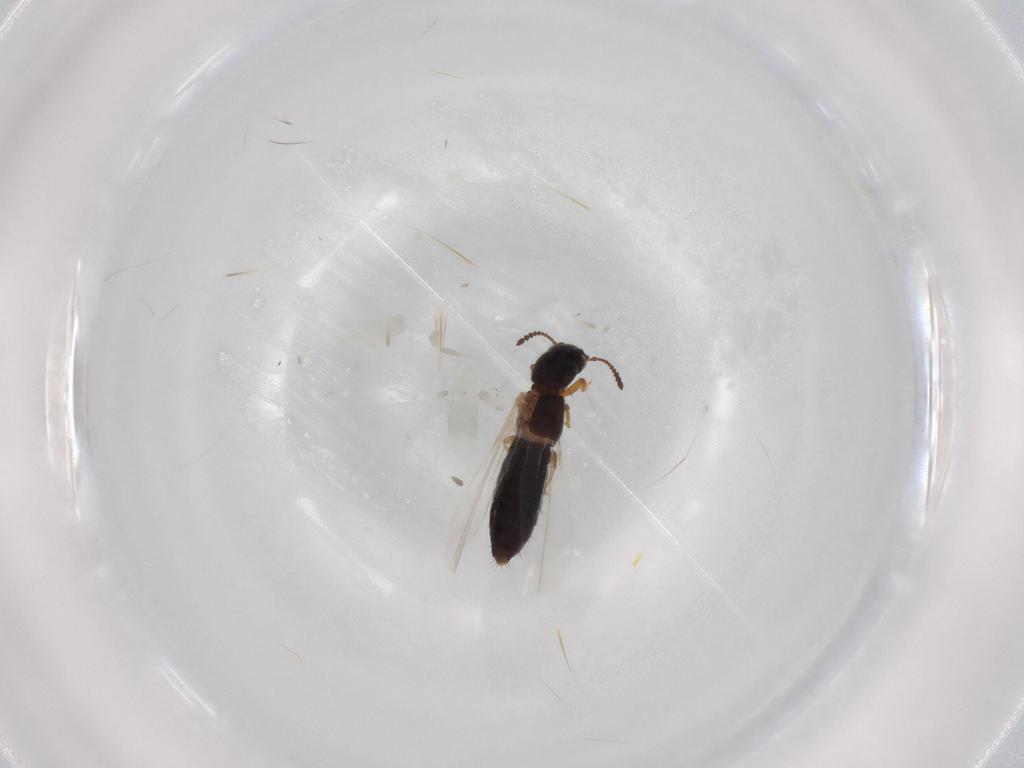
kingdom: Animalia
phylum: Arthropoda
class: Insecta
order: Coleoptera
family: Staphylinidae
